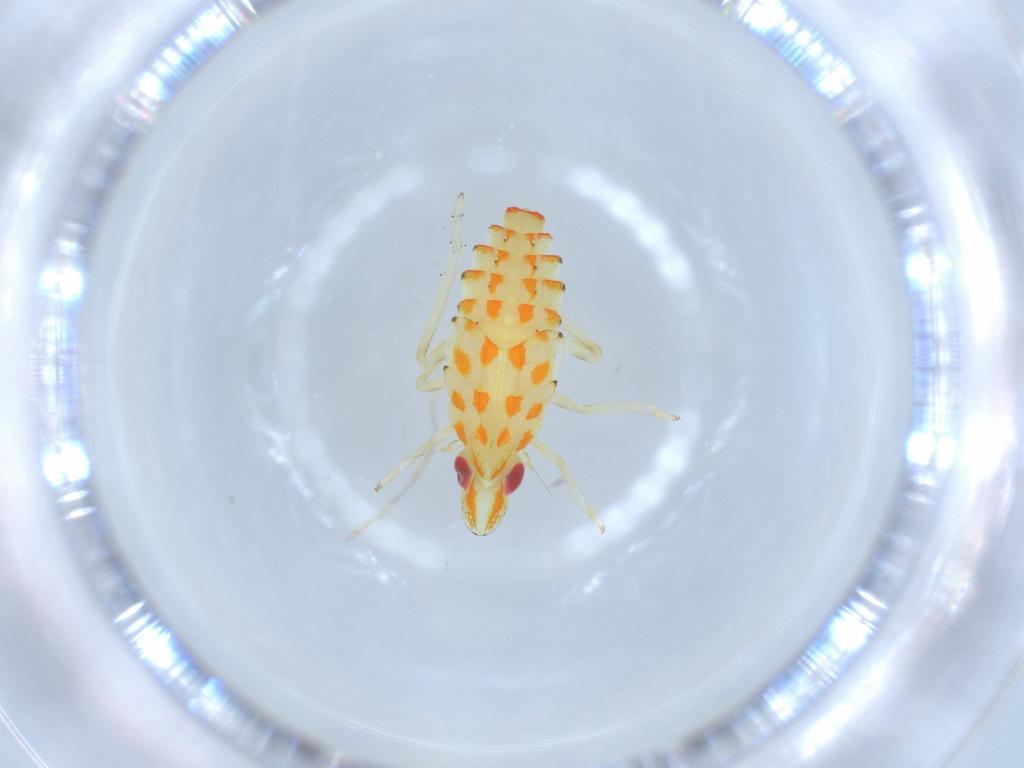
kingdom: Animalia
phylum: Arthropoda
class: Insecta
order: Hemiptera
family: Tropiduchidae
